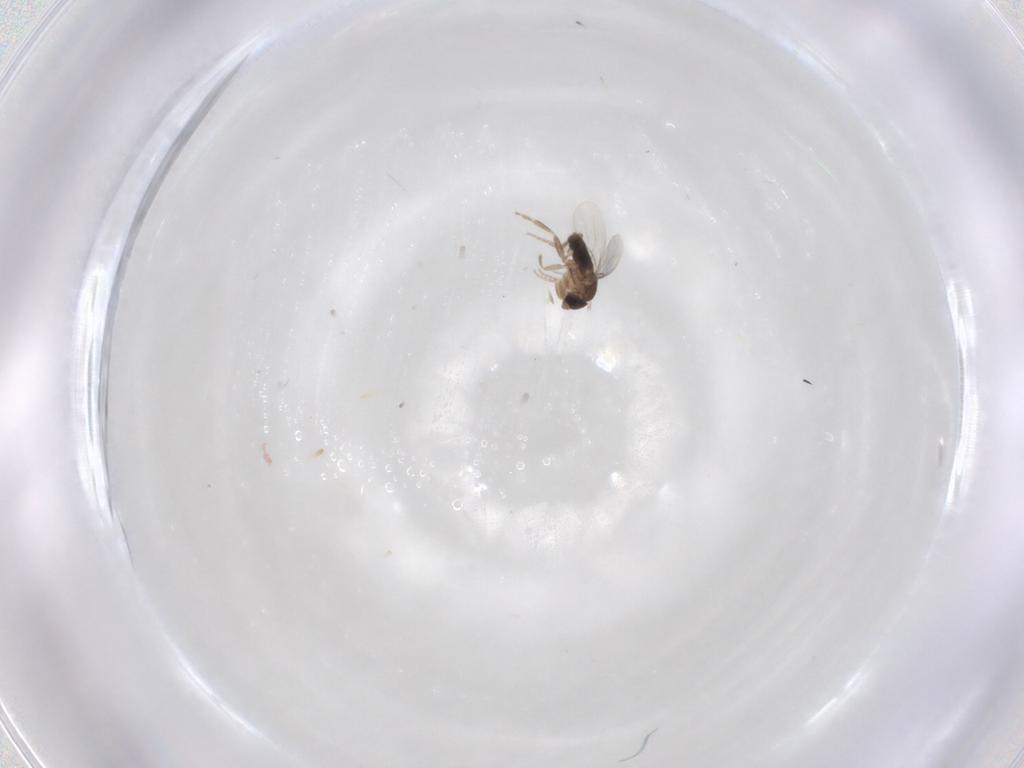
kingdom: Animalia
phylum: Arthropoda
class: Insecta
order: Diptera
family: Phoridae
